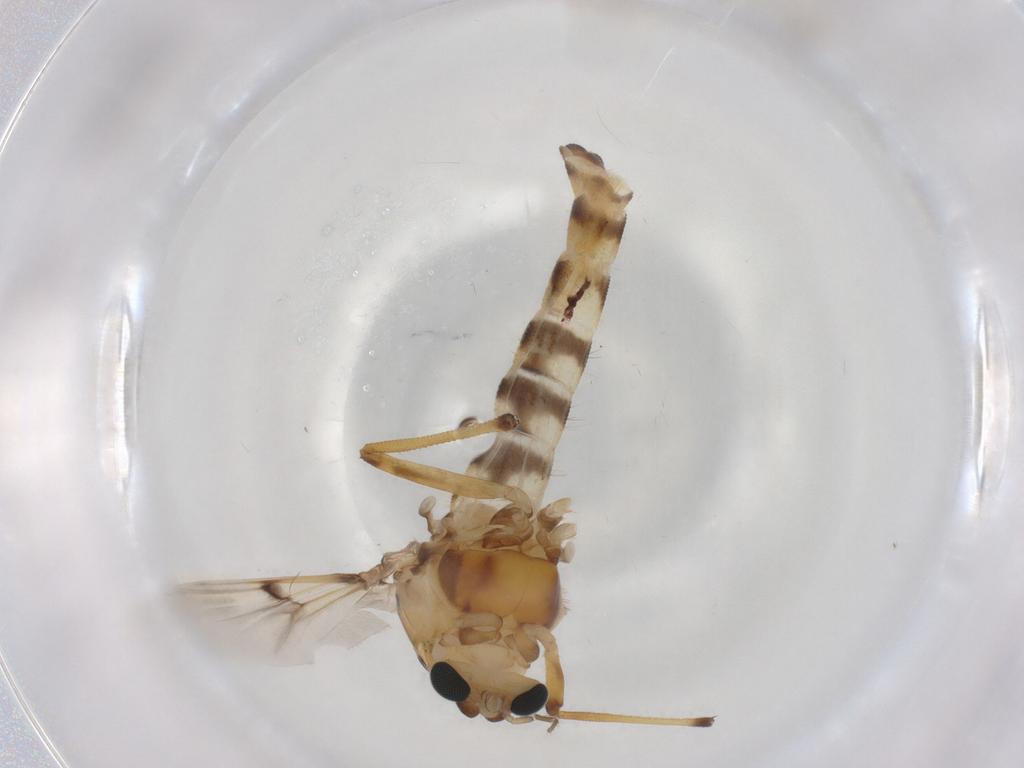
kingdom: Animalia
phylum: Arthropoda
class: Insecta
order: Diptera
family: Chironomidae
